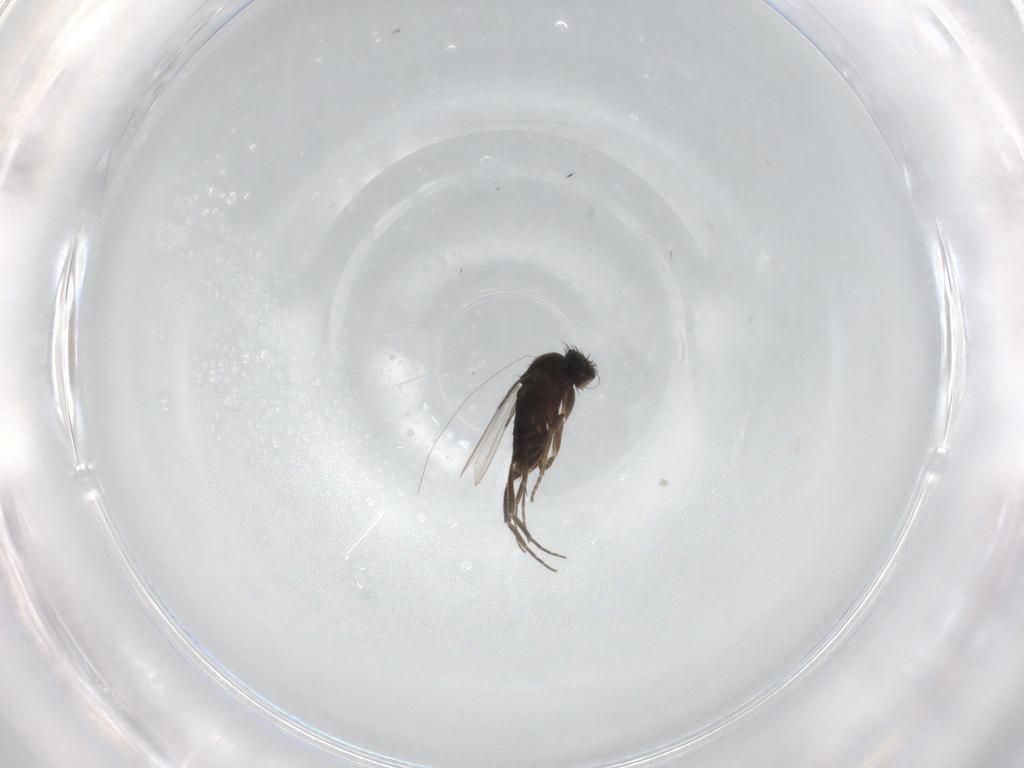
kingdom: Animalia
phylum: Arthropoda
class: Insecta
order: Diptera
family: Phoridae
